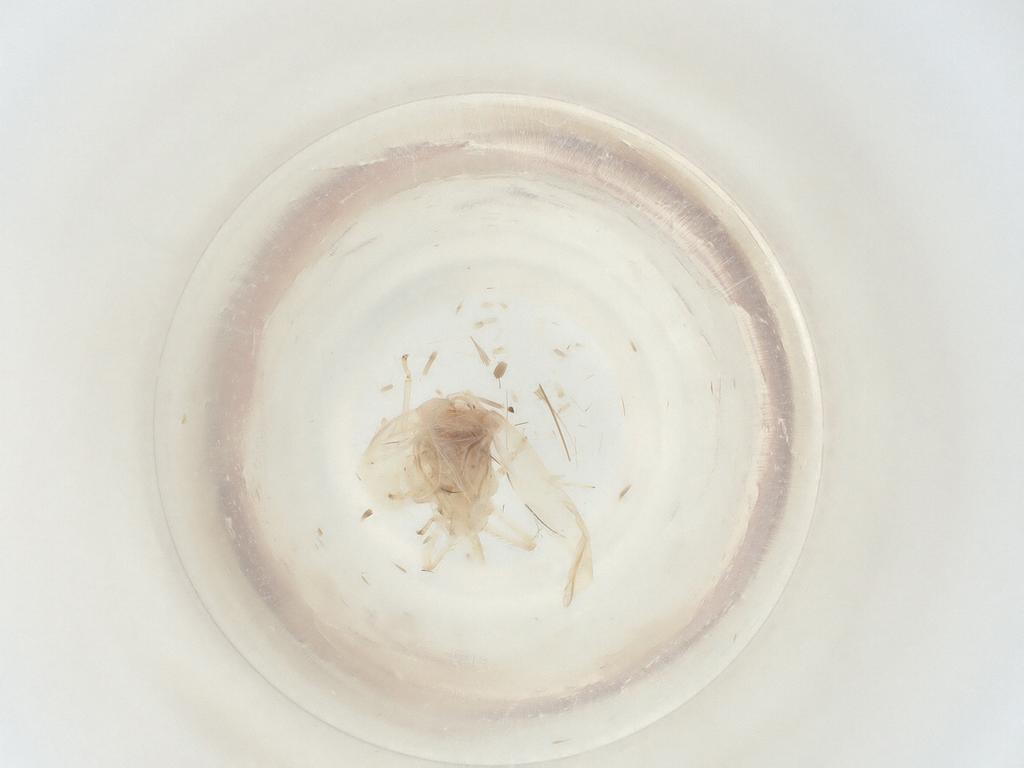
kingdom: Animalia
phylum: Arthropoda
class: Insecta
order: Hemiptera
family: Cicadellidae
